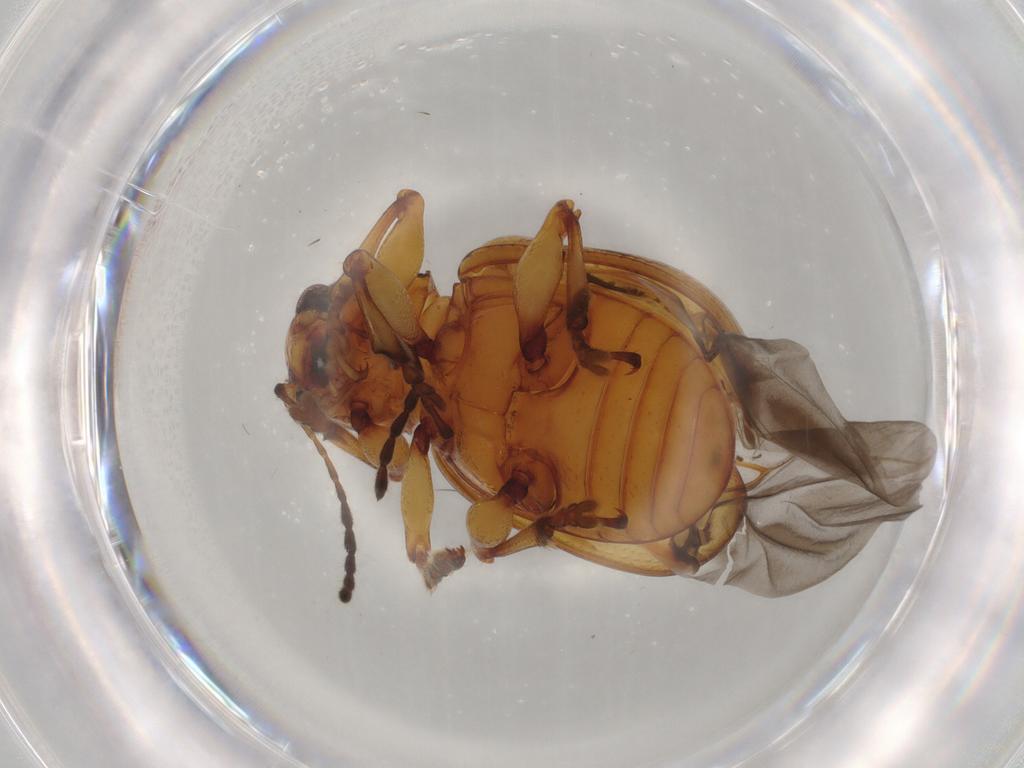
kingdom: Animalia
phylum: Arthropoda
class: Insecta
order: Coleoptera
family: Chrysomelidae
